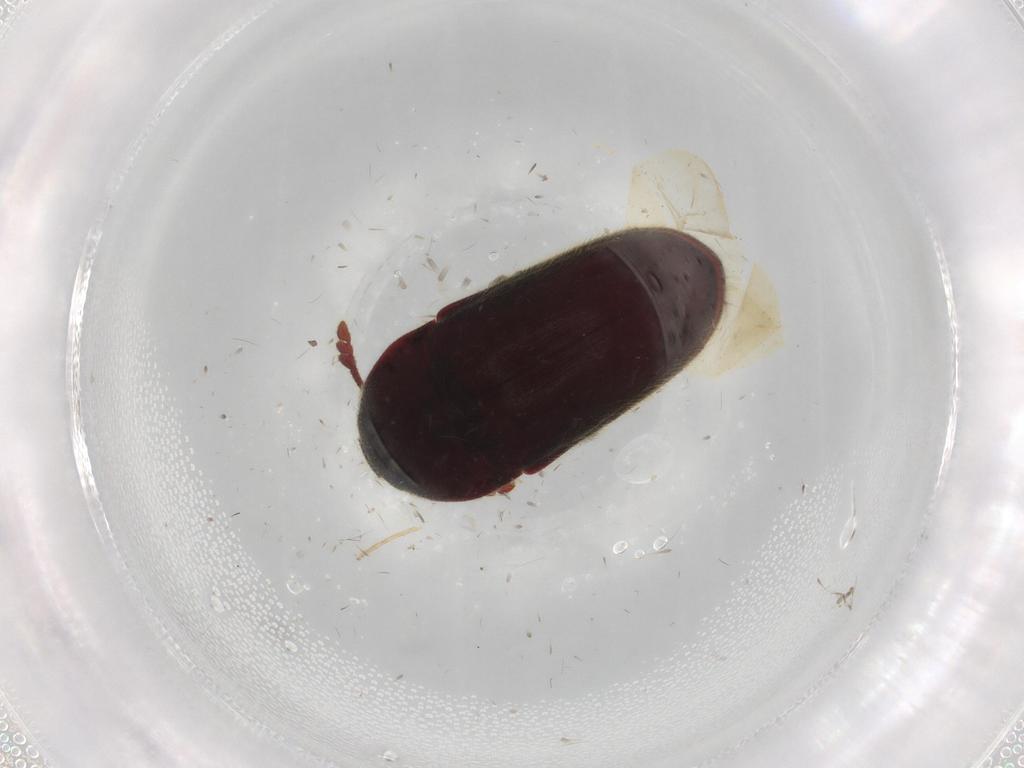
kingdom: Animalia
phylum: Arthropoda
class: Insecta
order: Coleoptera
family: Throscidae
